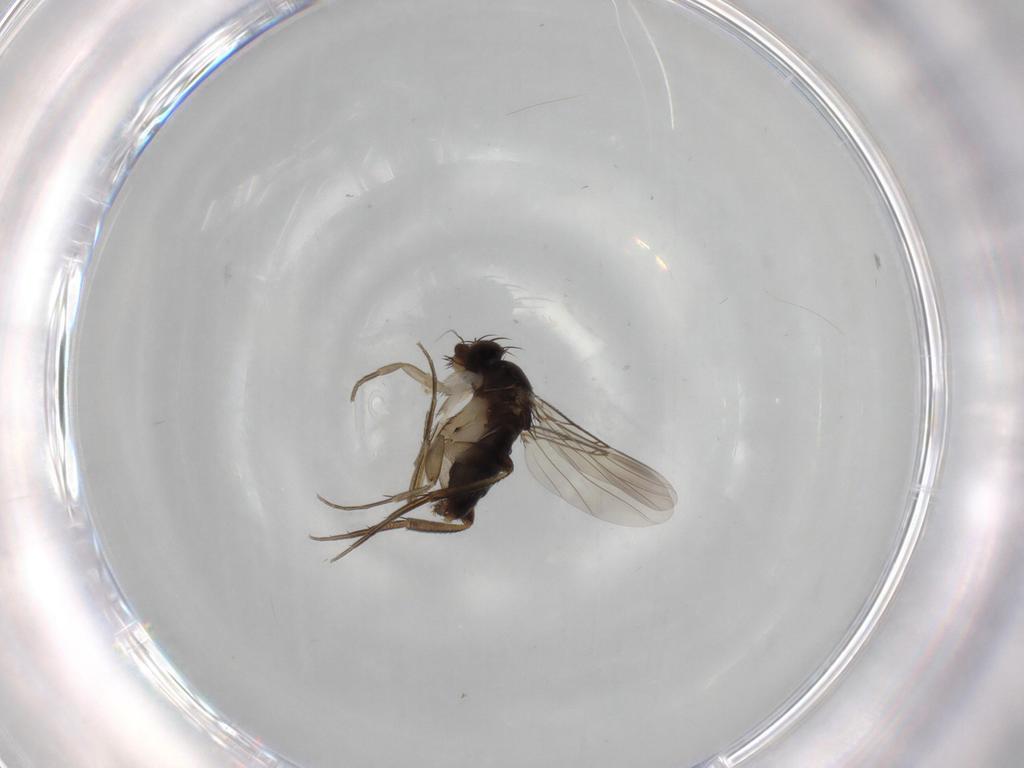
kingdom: Animalia
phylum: Arthropoda
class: Insecta
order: Diptera
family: Phoridae
